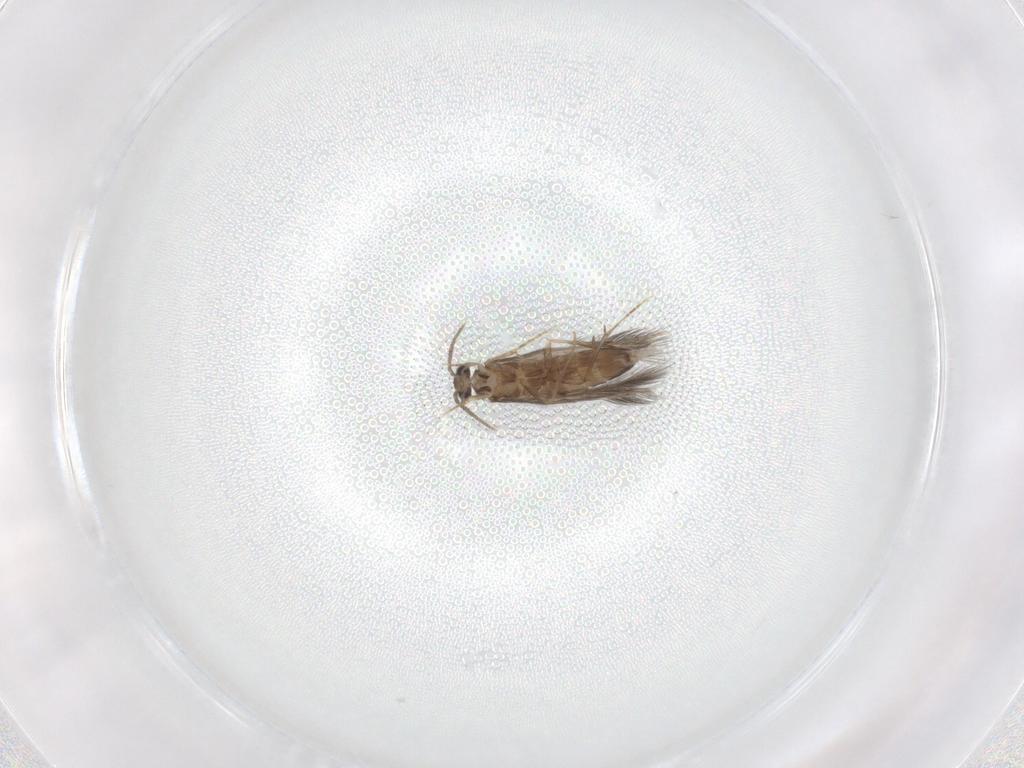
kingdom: Animalia
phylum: Arthropoda
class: Insecta
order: Trichoptera
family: Hydroptilidae
